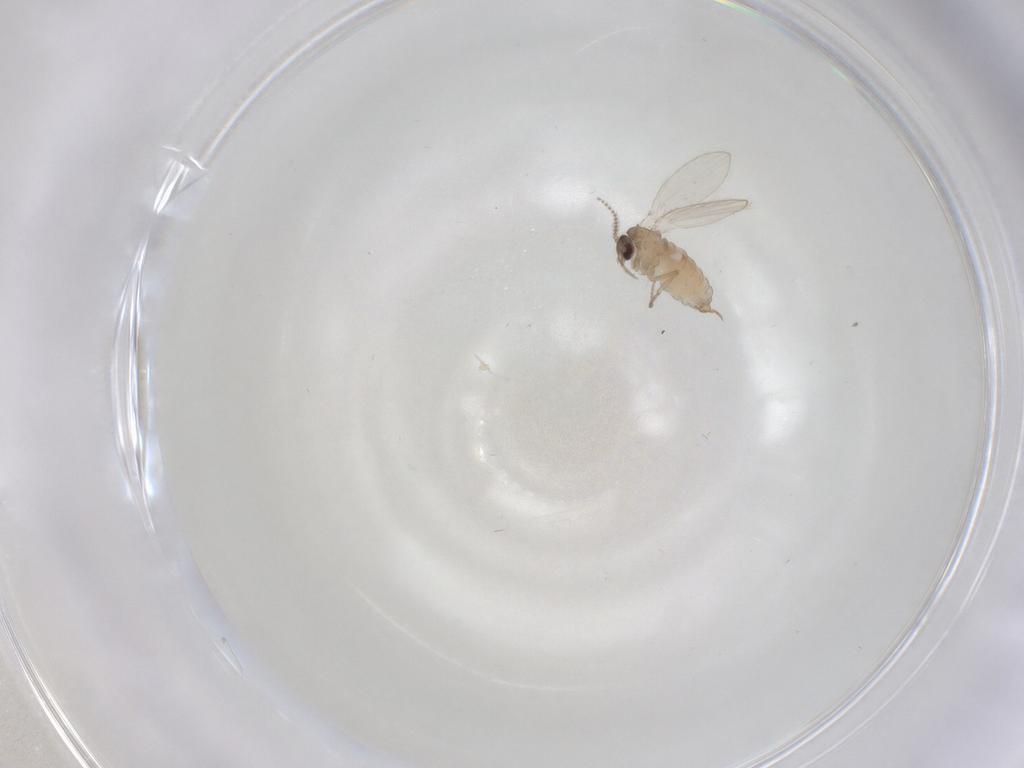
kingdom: Animalia
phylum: Arthropoda
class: Insecta
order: Diptera
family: Psychodidae
